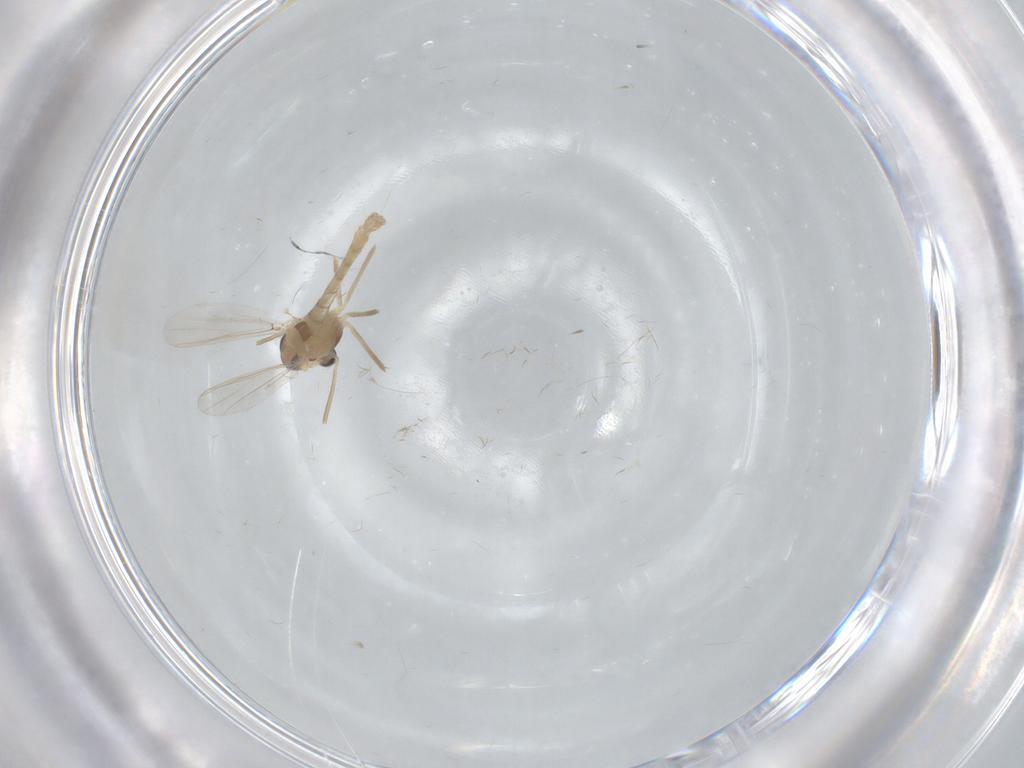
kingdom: Animalia
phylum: Arthropoda
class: Insecta
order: Diptera
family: Chironomidae
